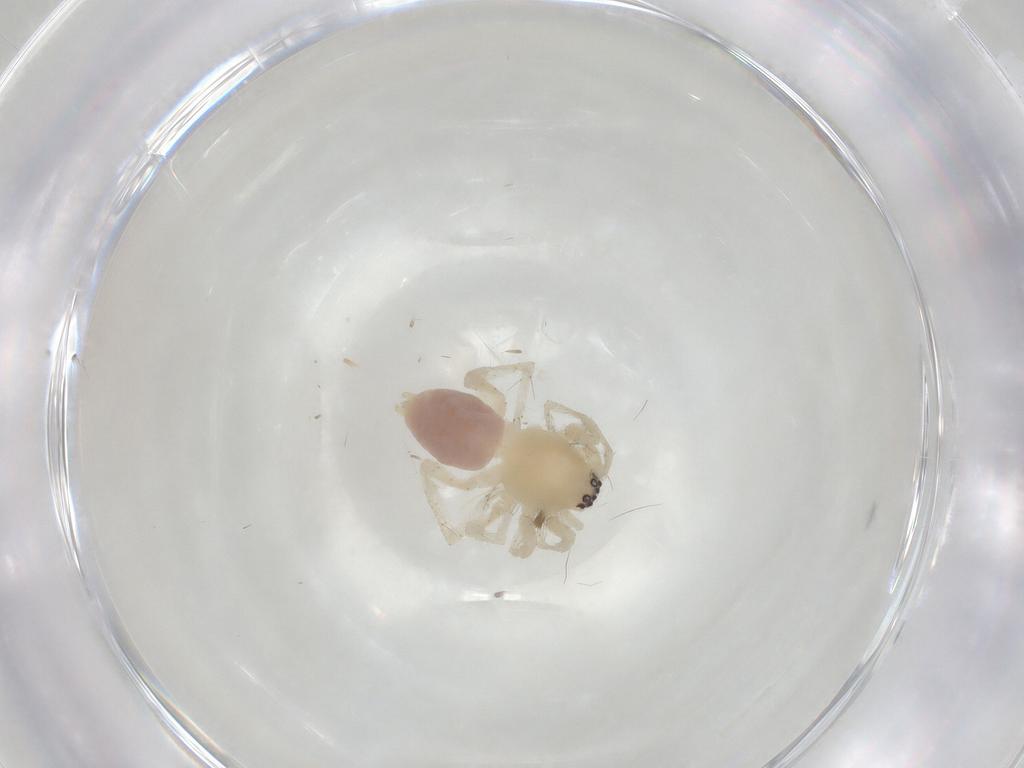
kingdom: Animalia
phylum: Arthropoda
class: Arachnida
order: Araneae
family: Clubionidae
